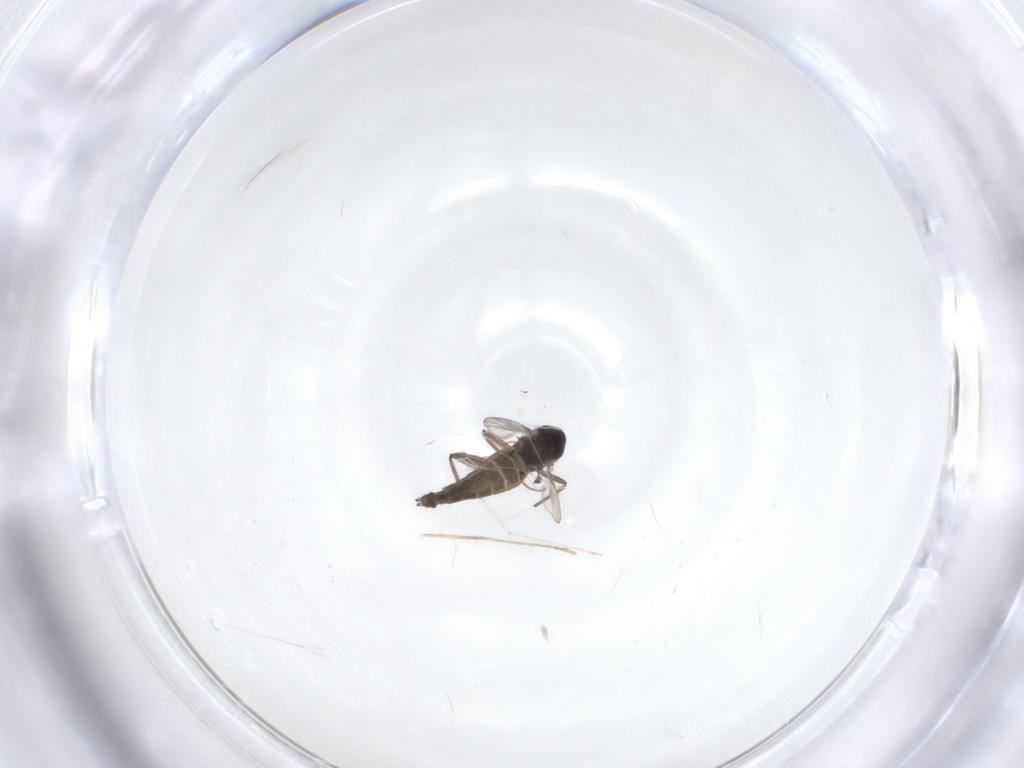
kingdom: Animalia
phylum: Arthropoda
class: Insecta
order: Diptera
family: Chironomidae
